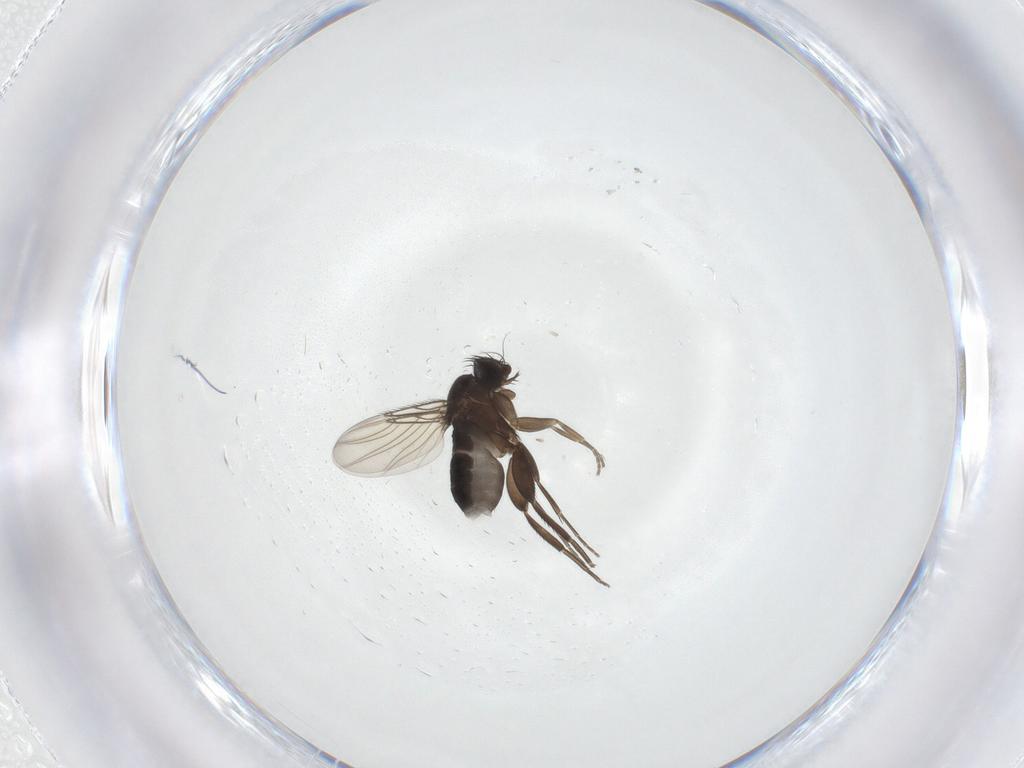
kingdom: Animalia
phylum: Arthropoda
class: Insecta
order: Diptera
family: Phoridae
